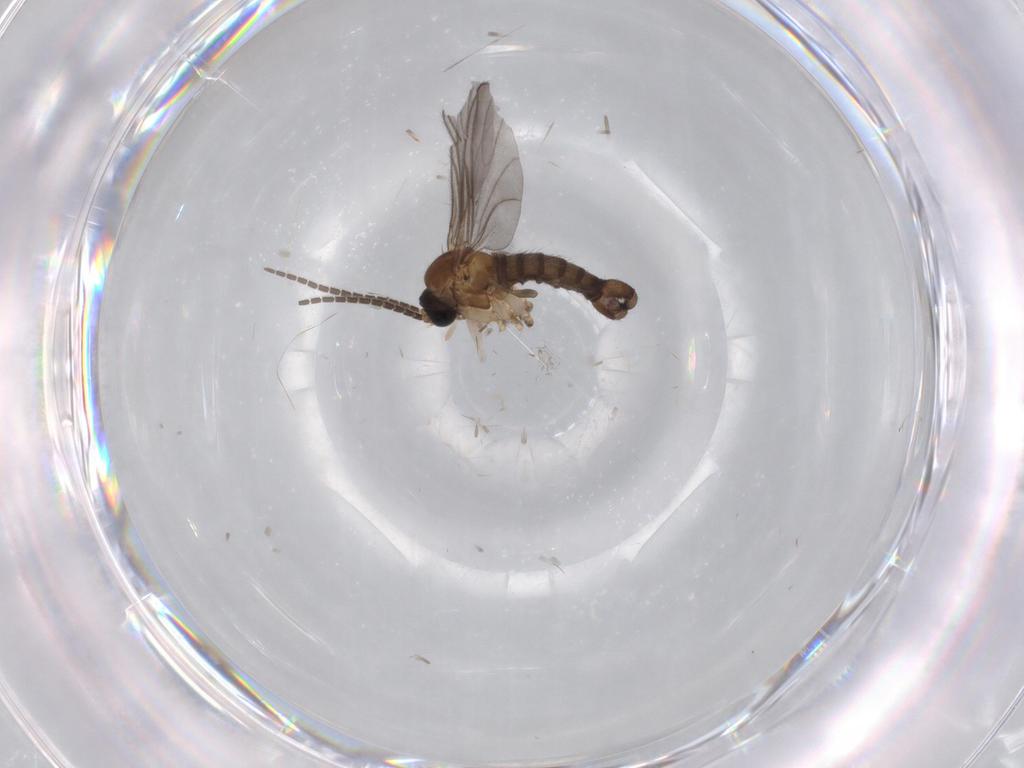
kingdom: Animalia
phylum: Arthropoda
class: Insecta
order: Diptera
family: Sciaridae
